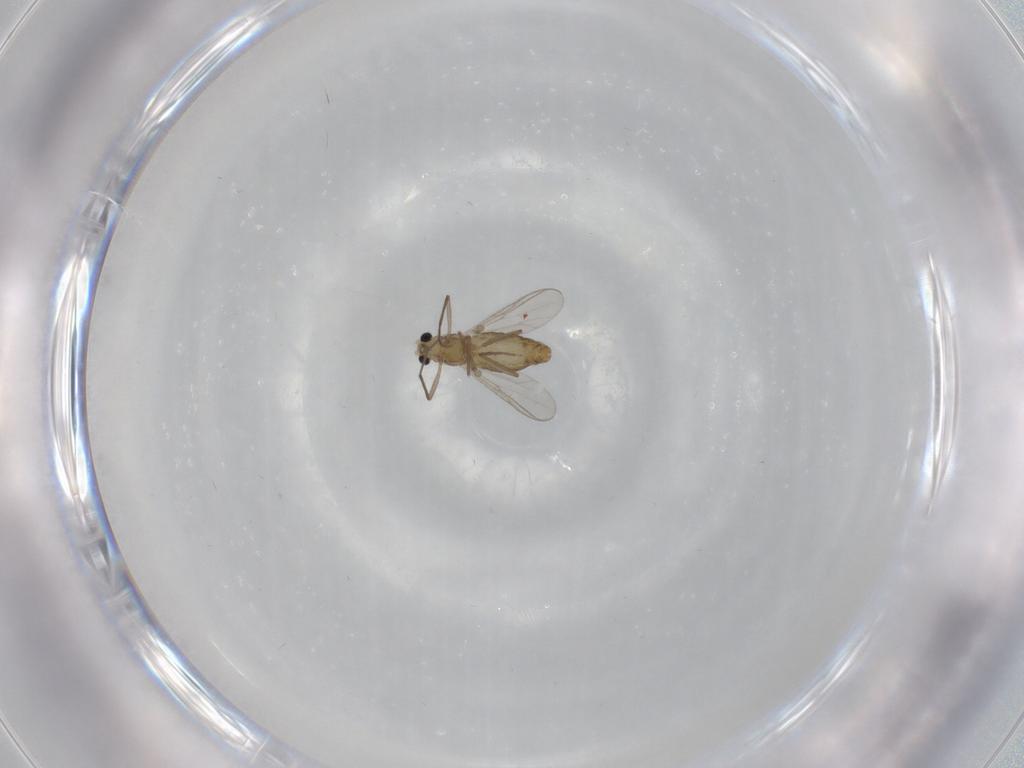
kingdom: Animalia
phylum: Arthropoda
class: Insecta
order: Diptera
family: Chironomidae
